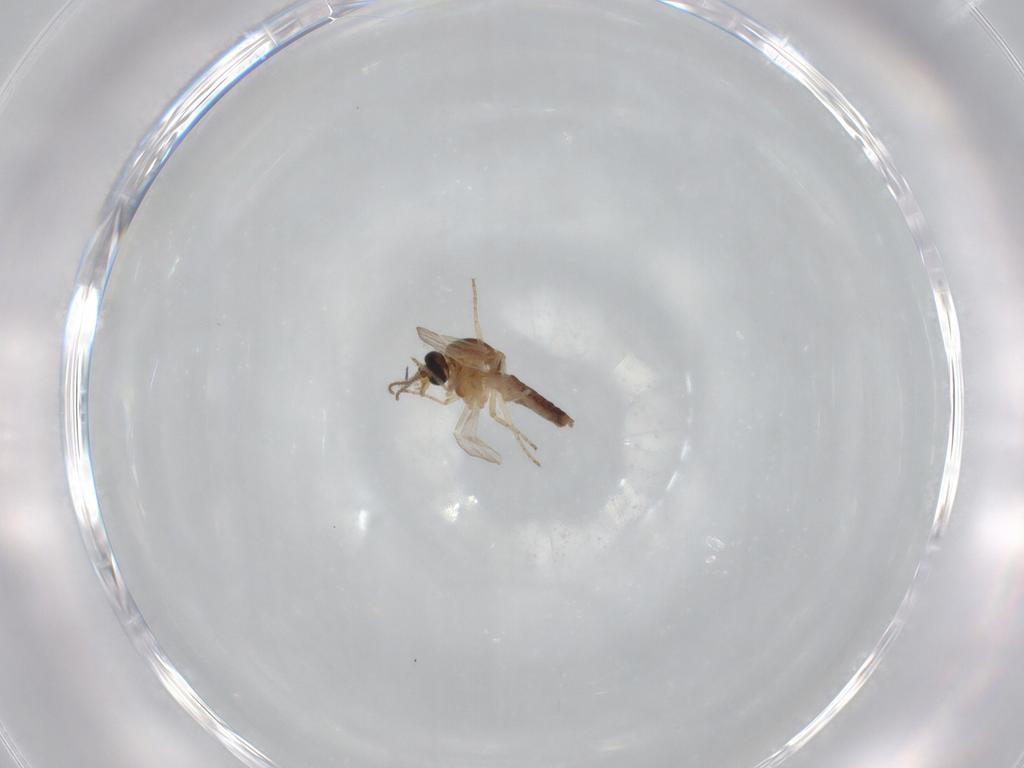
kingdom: Animalia
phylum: Arthropoda
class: Insecta
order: Diptera
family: Ceratopogonidae
